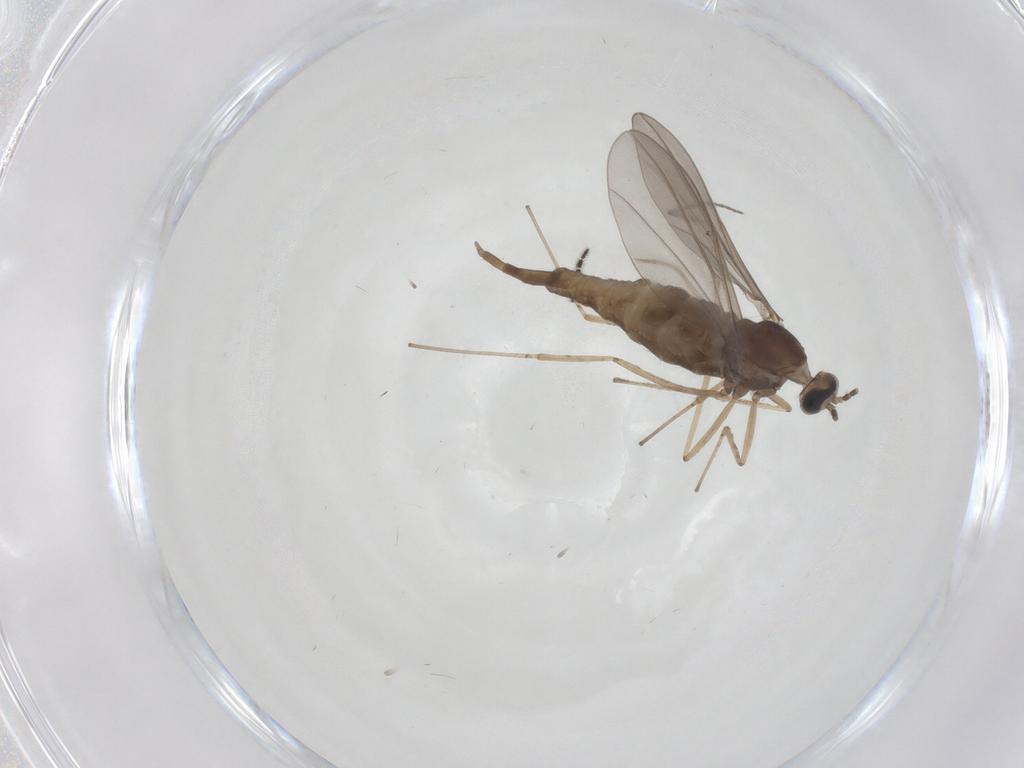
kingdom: Animalia
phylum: Arthropoda
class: Insecta
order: Diptera
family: Cecidomyiidae
